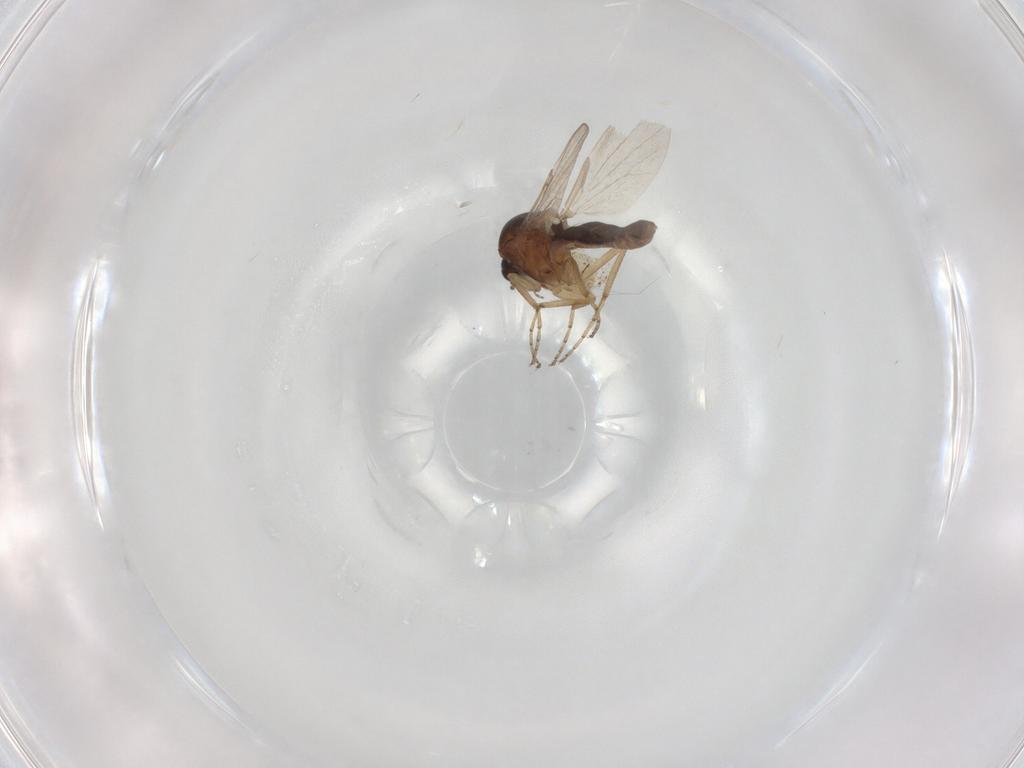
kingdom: Animalia
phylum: Arthropoda
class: Insecta
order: Diptera
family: Ceratopogonidae
